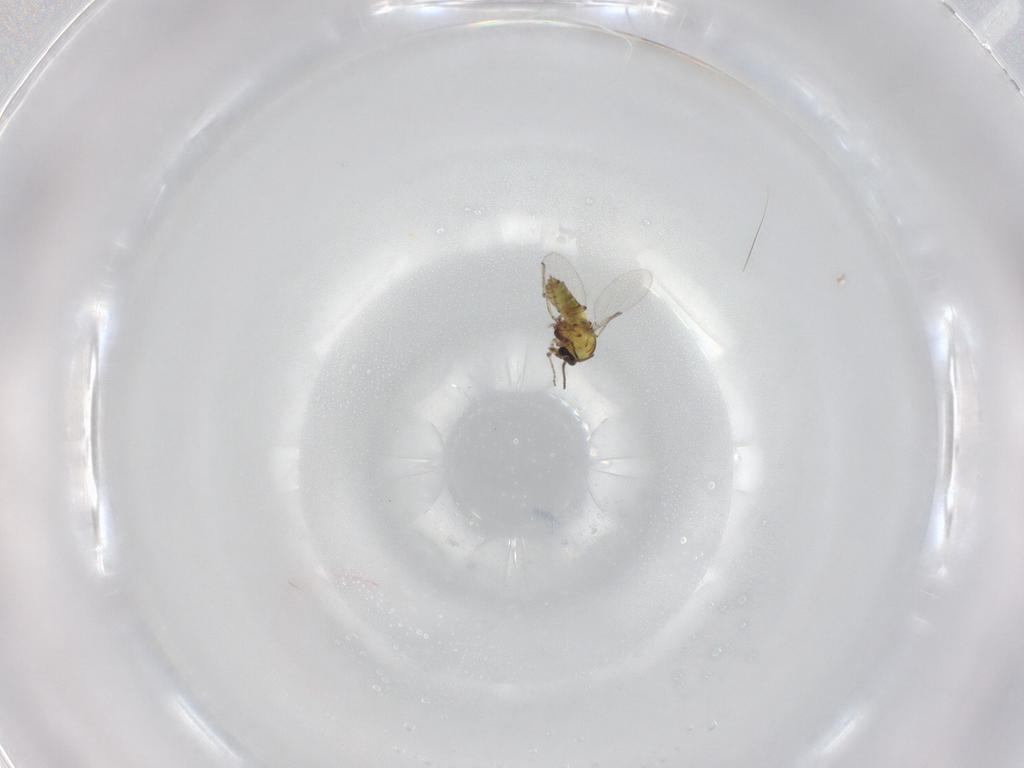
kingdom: Animalia
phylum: Arthropoda
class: Insecta
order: Diptera
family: Ceratopogonidae
